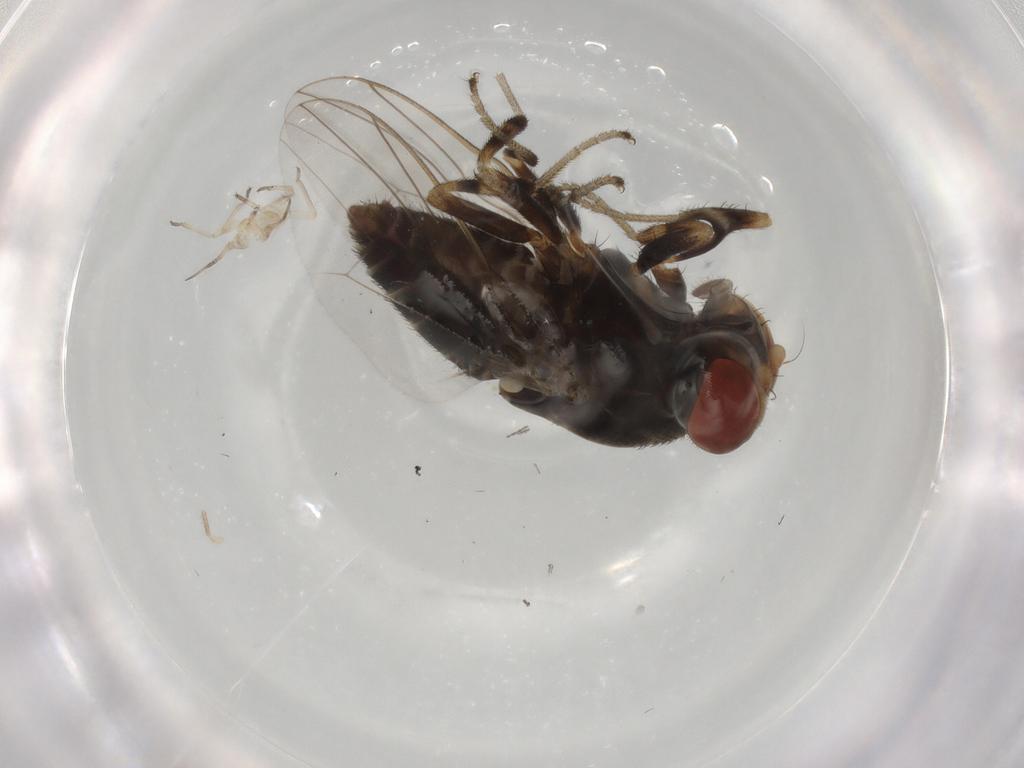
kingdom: Animalia
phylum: Arthropoda
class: Insecta
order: Diptera
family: Drosophilidae
